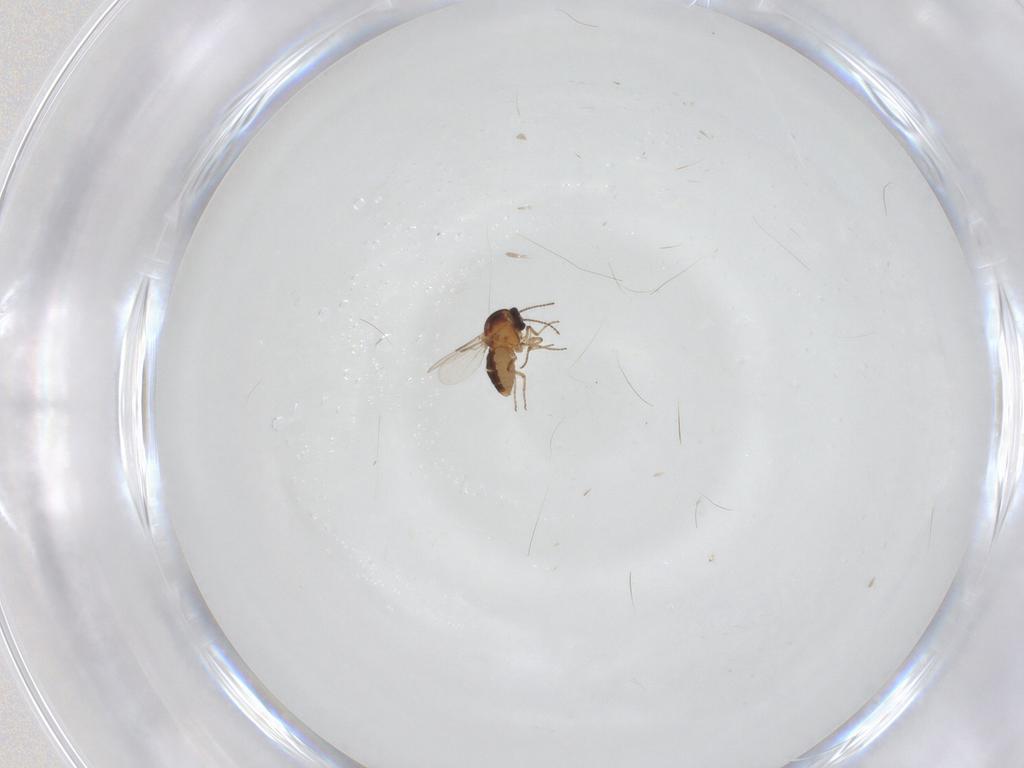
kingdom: Animalia
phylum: Arthropoda
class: Insecta
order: Diptera
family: Ceratopogonidae
